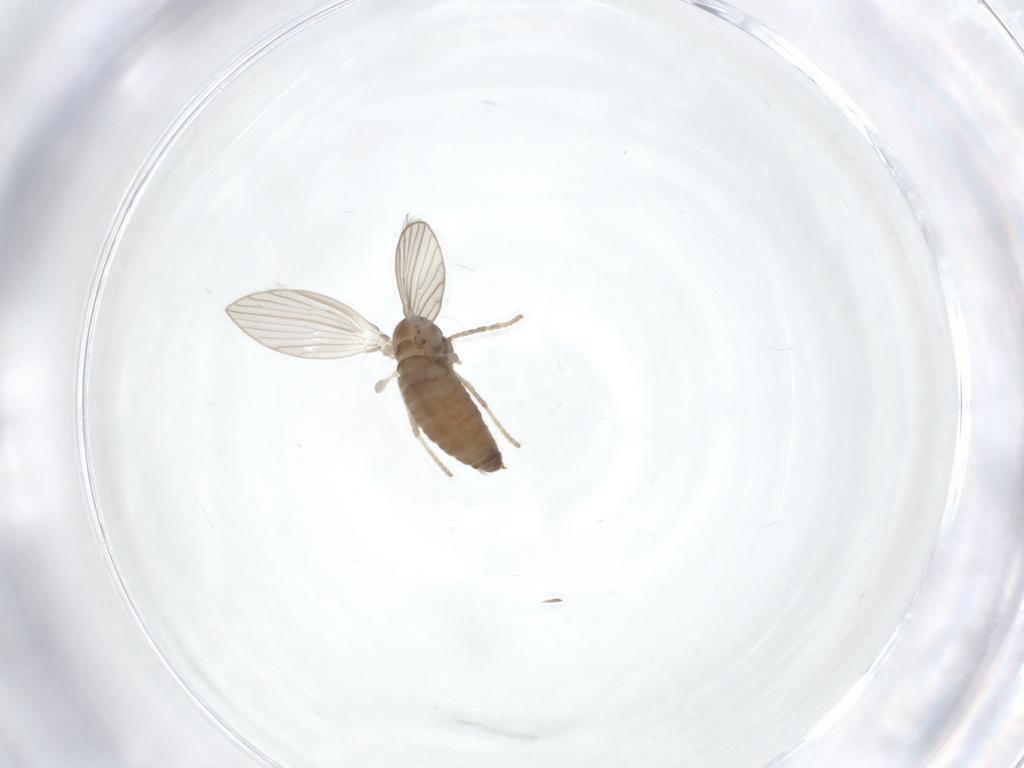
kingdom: Animalia
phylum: Arthropoda
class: Insecta
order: Diptera
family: Psychodidae
